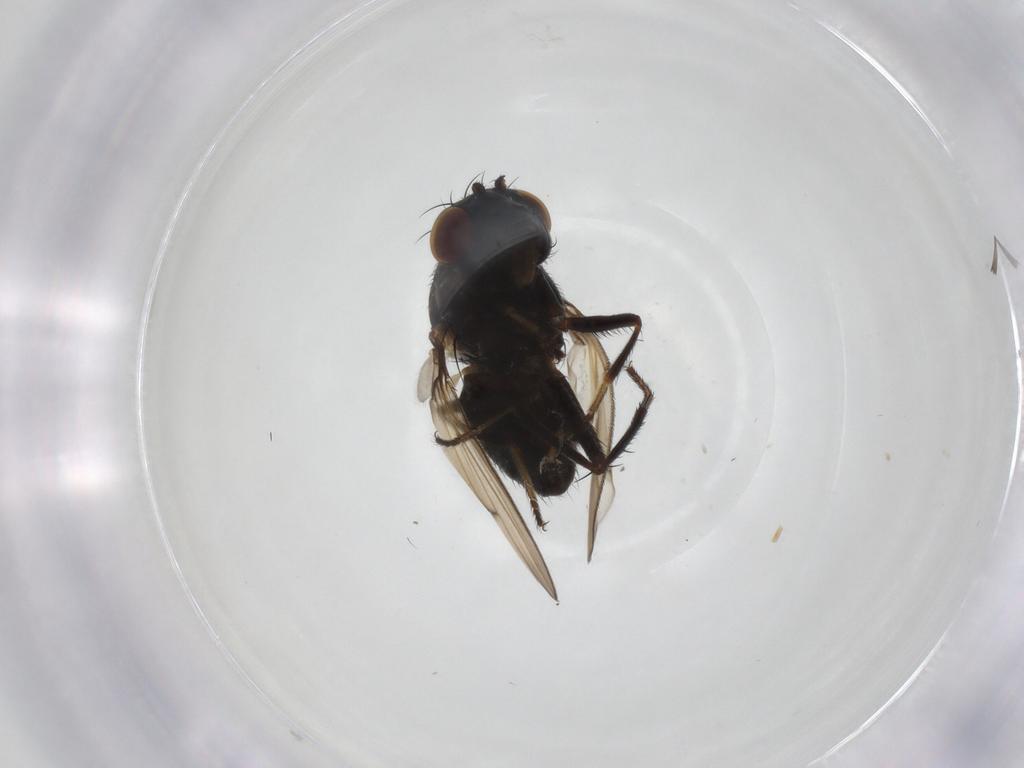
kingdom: Animalia
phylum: Arthropoda
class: Insecta
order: Diptera
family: Ephydridae
